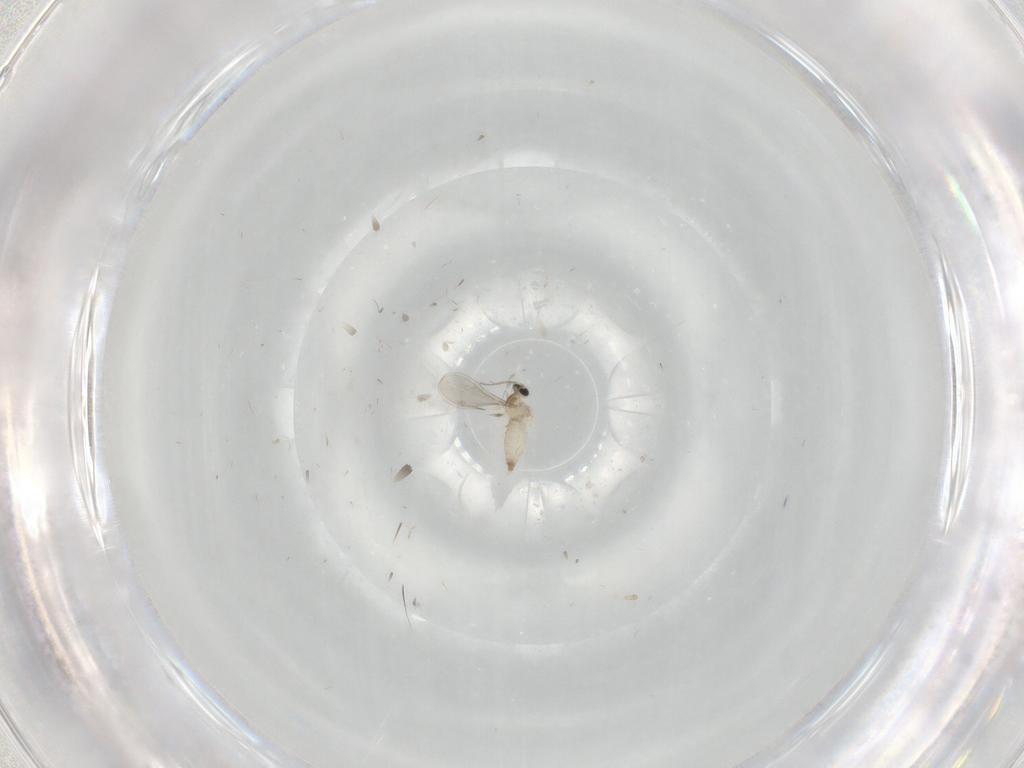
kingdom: Animalia
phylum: Arthropoda
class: Insecta
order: Diptera
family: Cecidomyiidae
